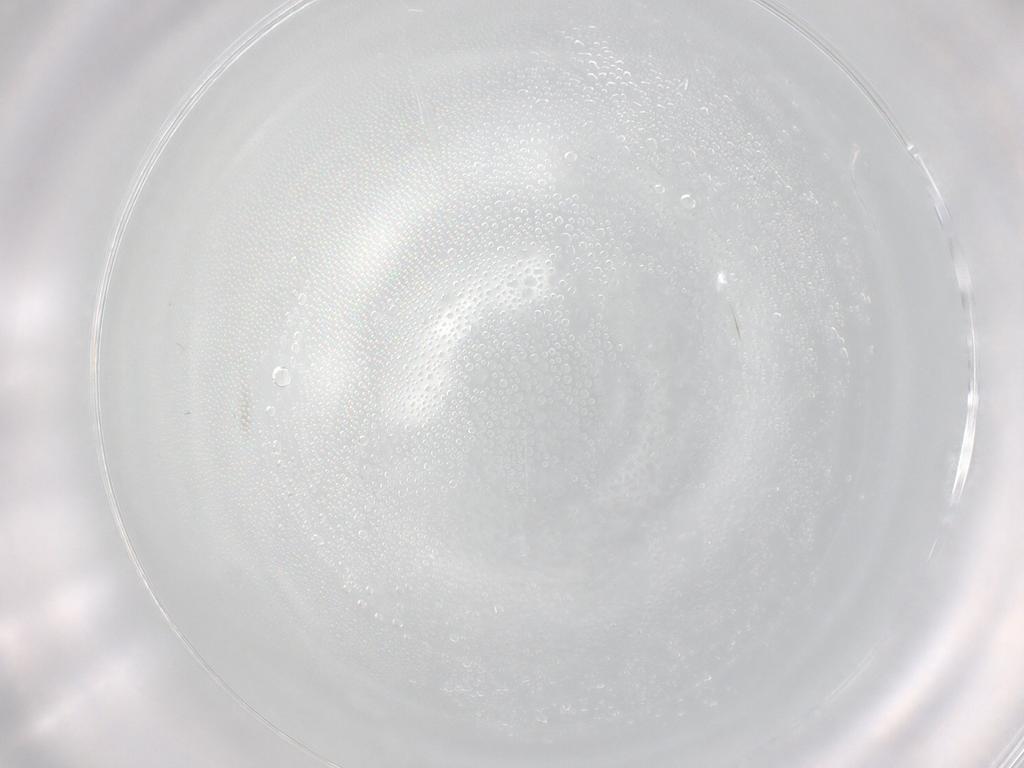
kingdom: Animalia
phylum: Arthropoda
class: Insecta
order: Diptera
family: Cecidomyiidae
